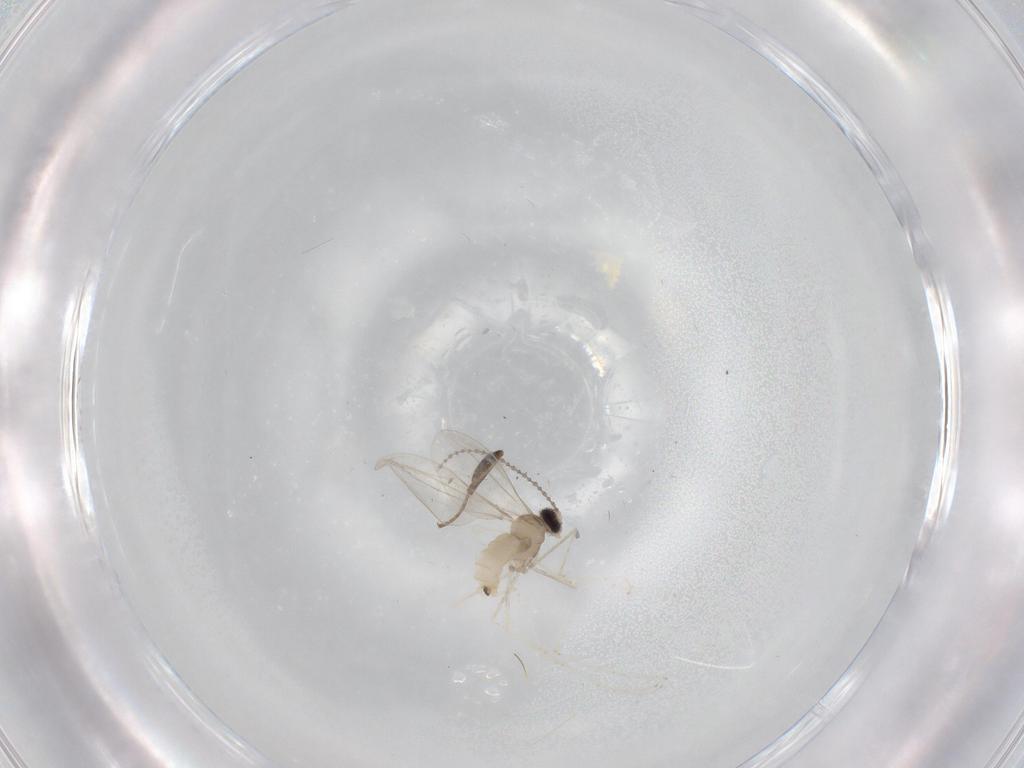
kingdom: Animalia
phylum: Arthropoda
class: Insecta
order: Diptera
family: Cecidomyiidae
